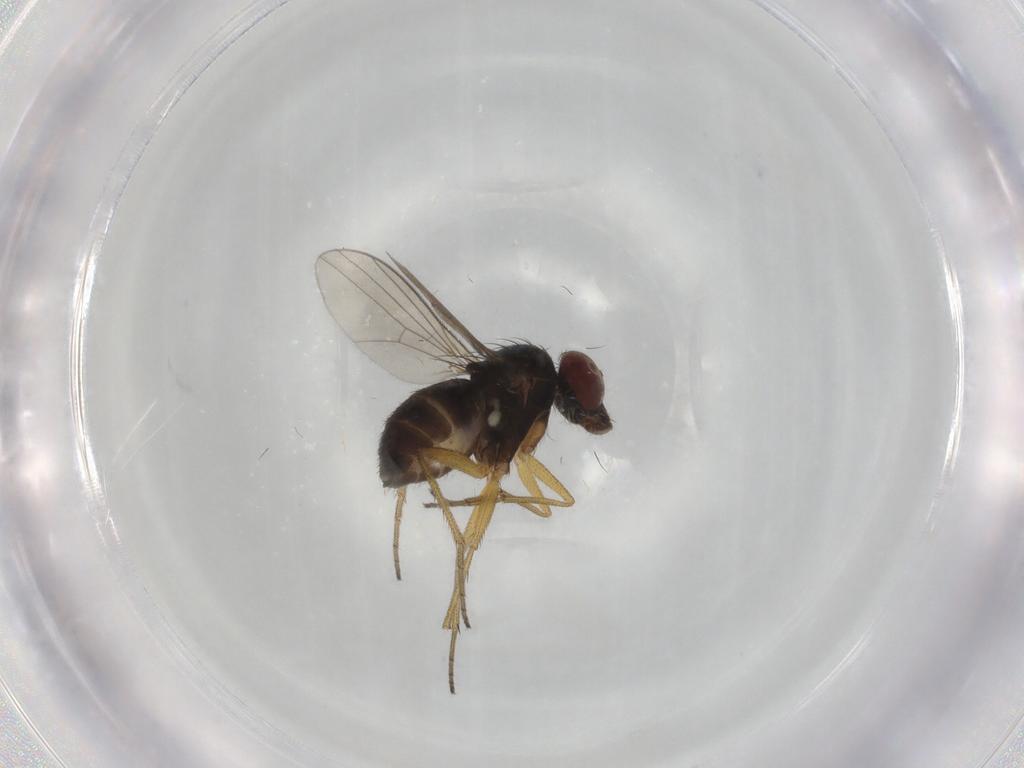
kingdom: Animalia
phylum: Arthropoda
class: Insecta
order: Diptera
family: Dolichopodidae
